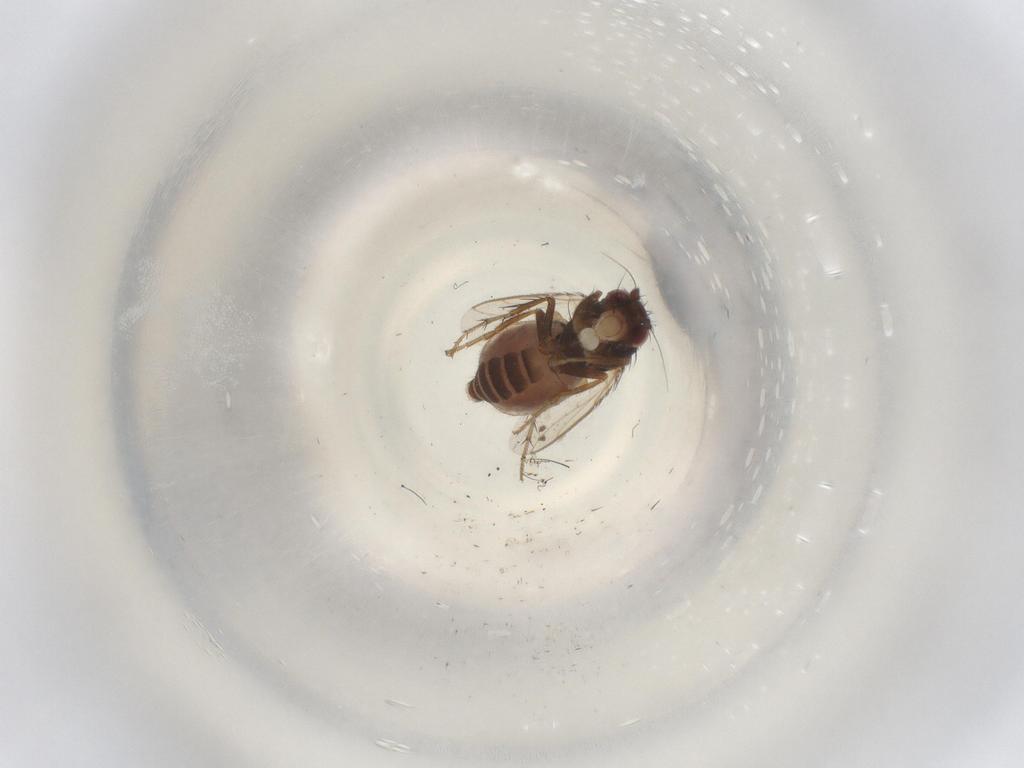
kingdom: Animalia
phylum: Arthropoda
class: Insecta
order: Diptera
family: Sphaeroceridae
